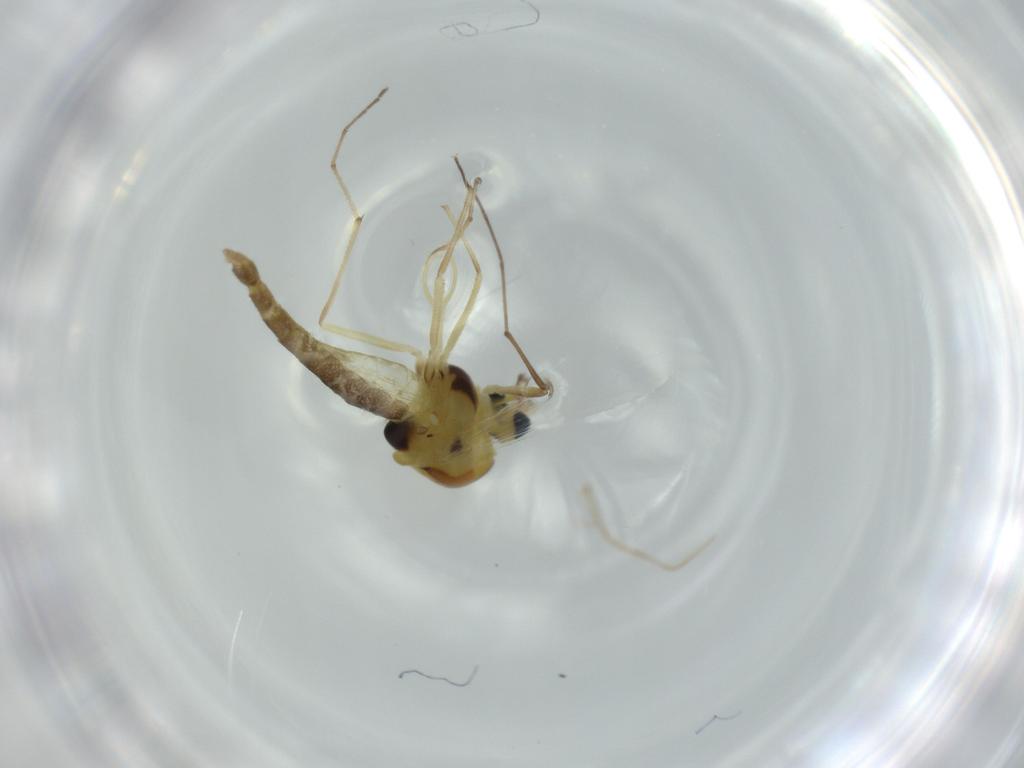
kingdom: Animalia
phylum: Arthropoda
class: Insecta
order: Diptera
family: Chironomidae
